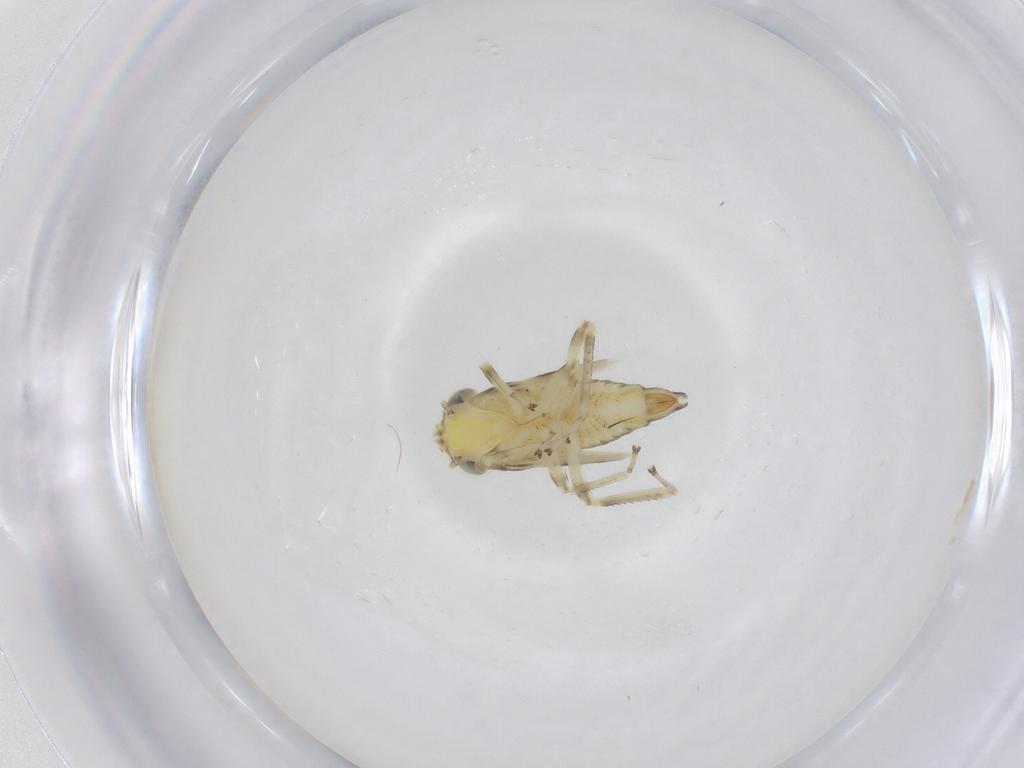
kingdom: Animalia
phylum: Arthropoda
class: Insecta
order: Hemiptera
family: Cicadellidae
